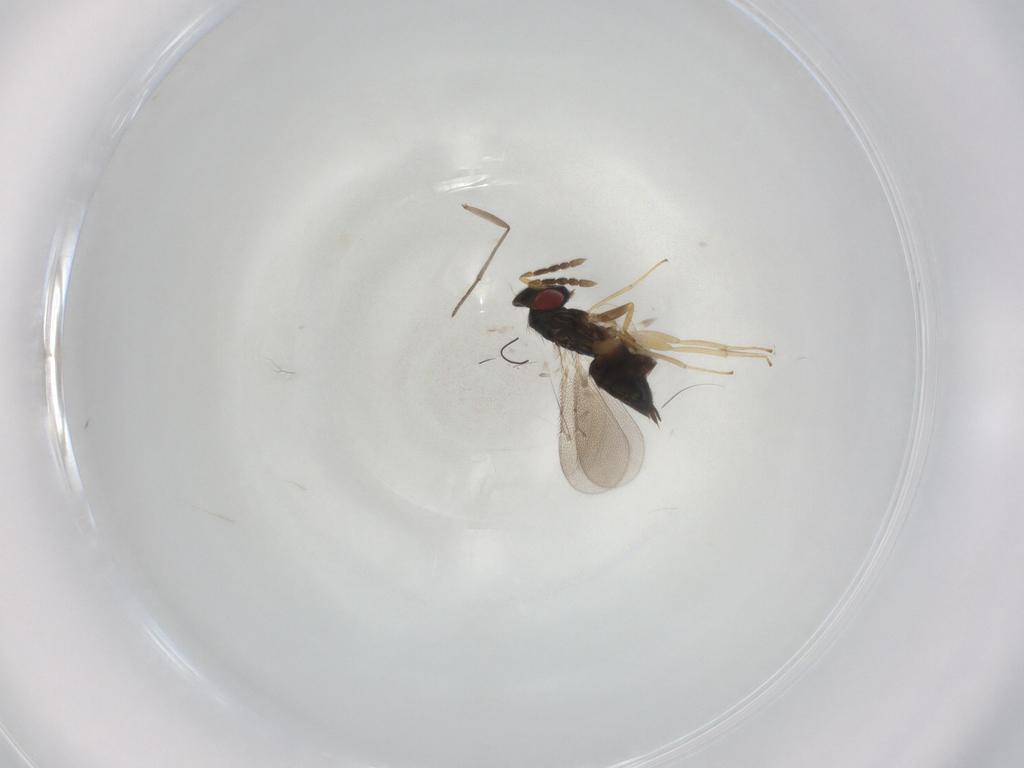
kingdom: Animalia
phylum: Arthropoda
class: Insecta
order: Hymenoptera
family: Eulophidae
